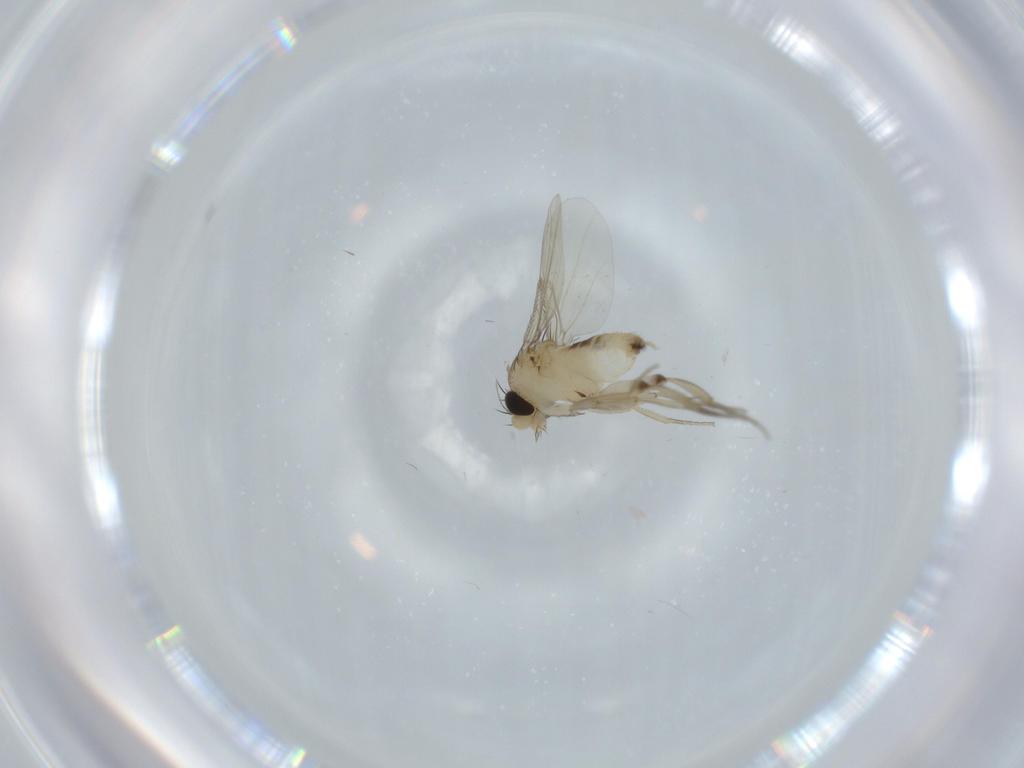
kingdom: Animalia
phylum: Arthropoda
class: Insecta
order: Diptera
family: Phoridae
